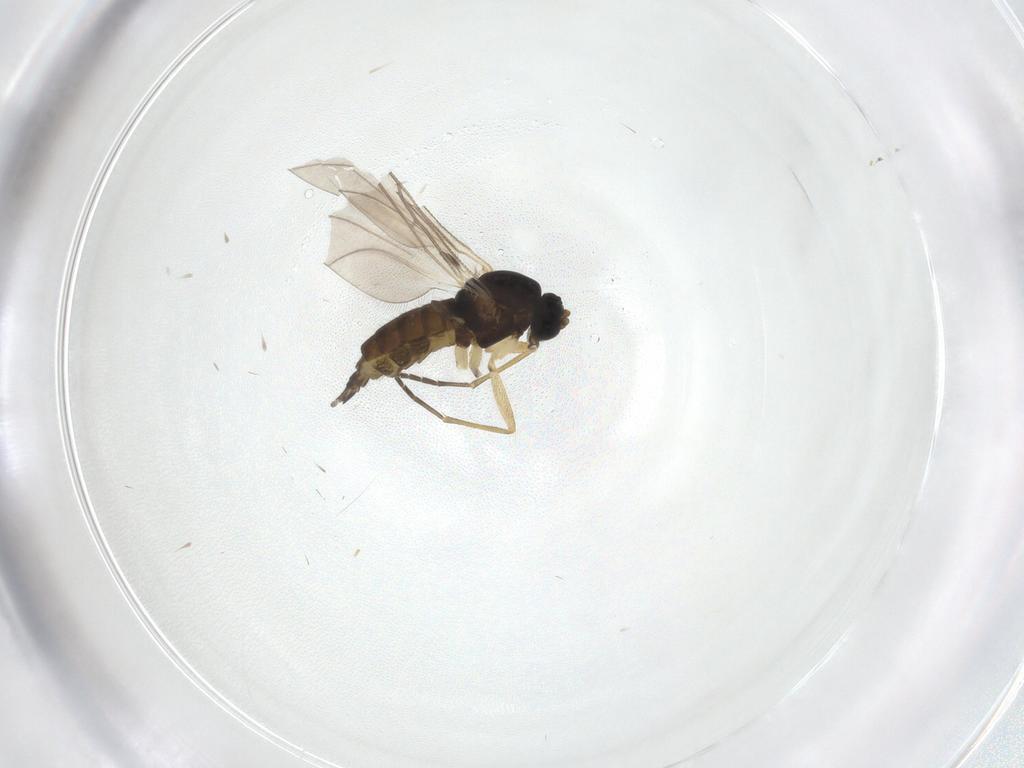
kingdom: Animalia
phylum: Arthropoda
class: Insecta
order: Diptera
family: Sciaridae
